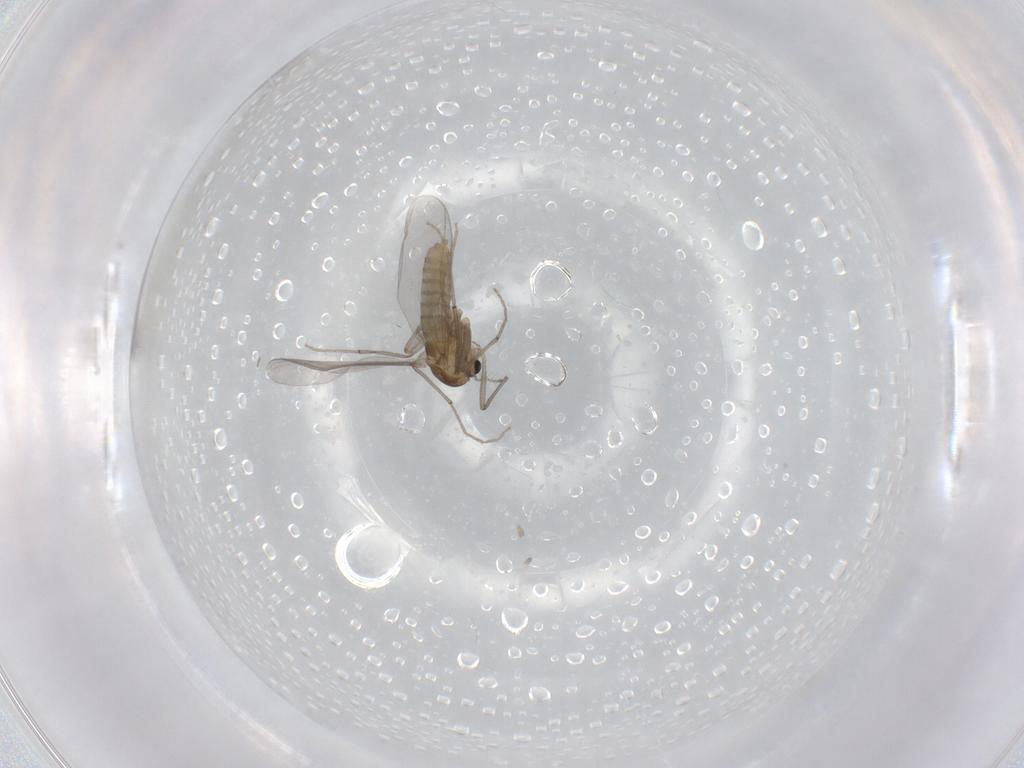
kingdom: Animalia
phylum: Arthropoda
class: Insecta
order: Diptera
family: Chironomidae
